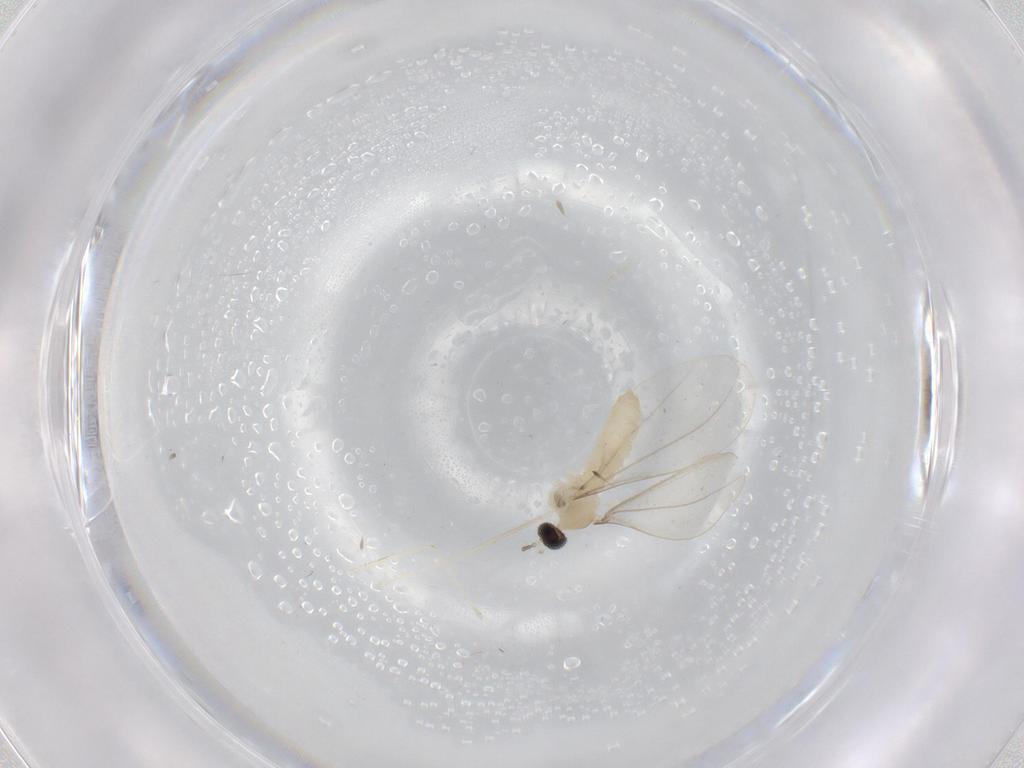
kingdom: Animalia
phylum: Arthropoda
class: Insecta
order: Diptera
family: Cecidomyiidae
